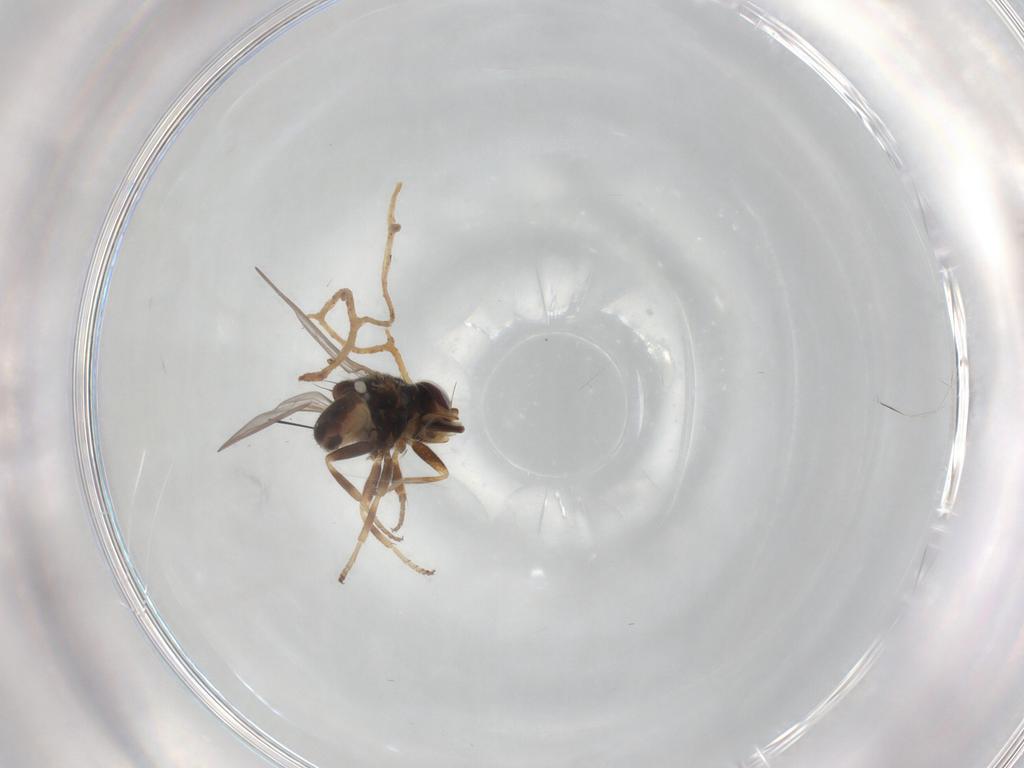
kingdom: Animalia
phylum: Arthropoda
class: Insecta
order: Diptera
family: Chloropidae
